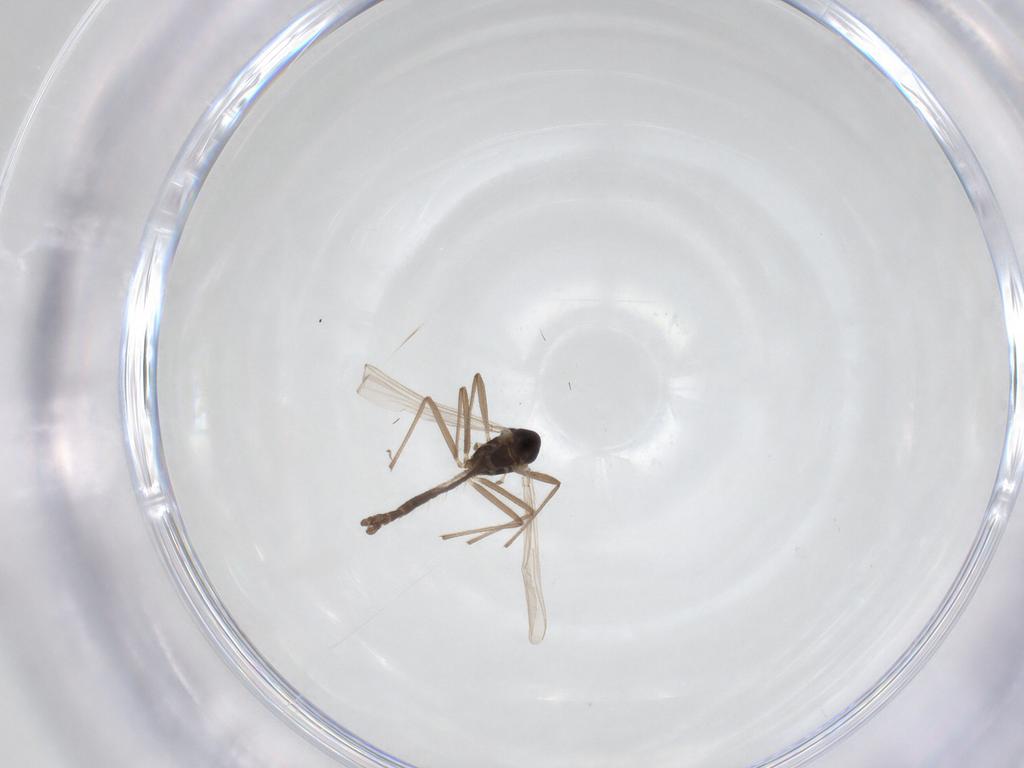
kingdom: Animalia
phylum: Arthropoda
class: Insecta
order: Diptera
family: Chironomidae
